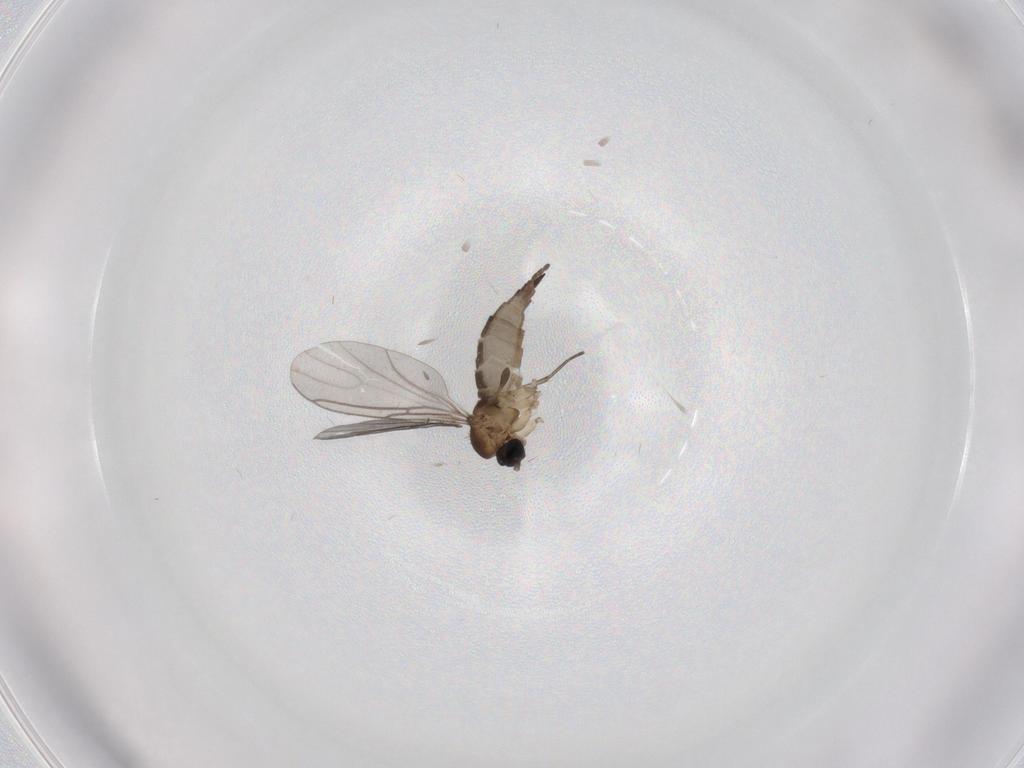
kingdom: Animalia
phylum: Arthropoda
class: Insecta
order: Diptera
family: Sciaridae
